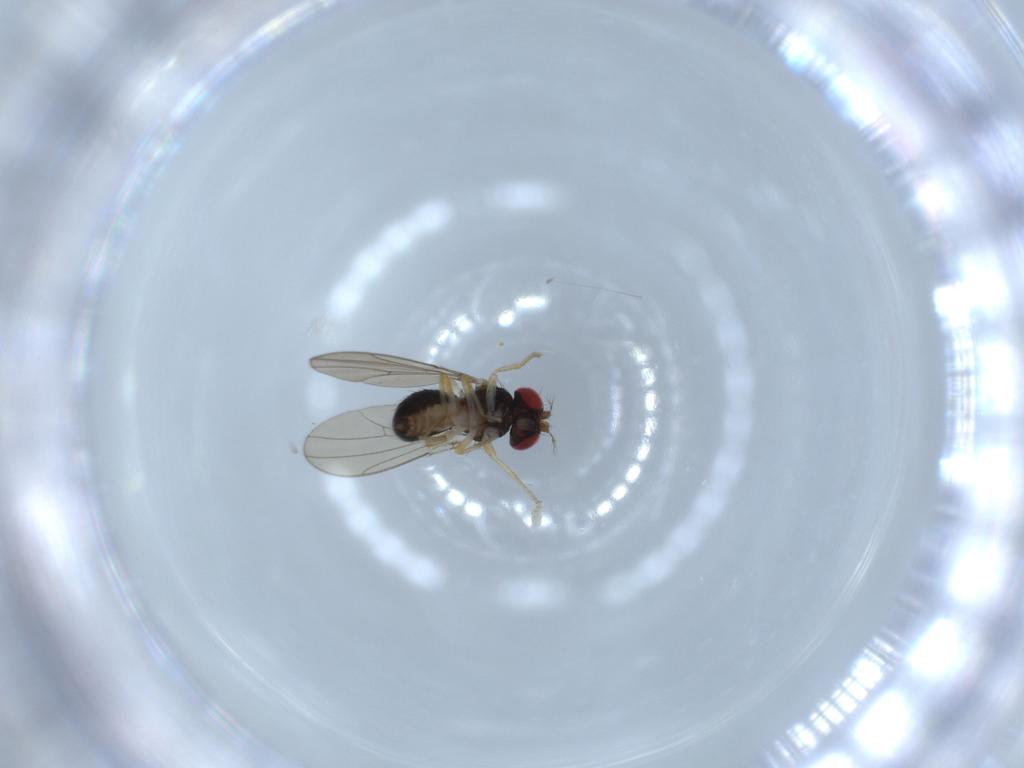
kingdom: Animalia
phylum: Arthropoda
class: Insecta
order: Diptera
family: Drosophilidae
